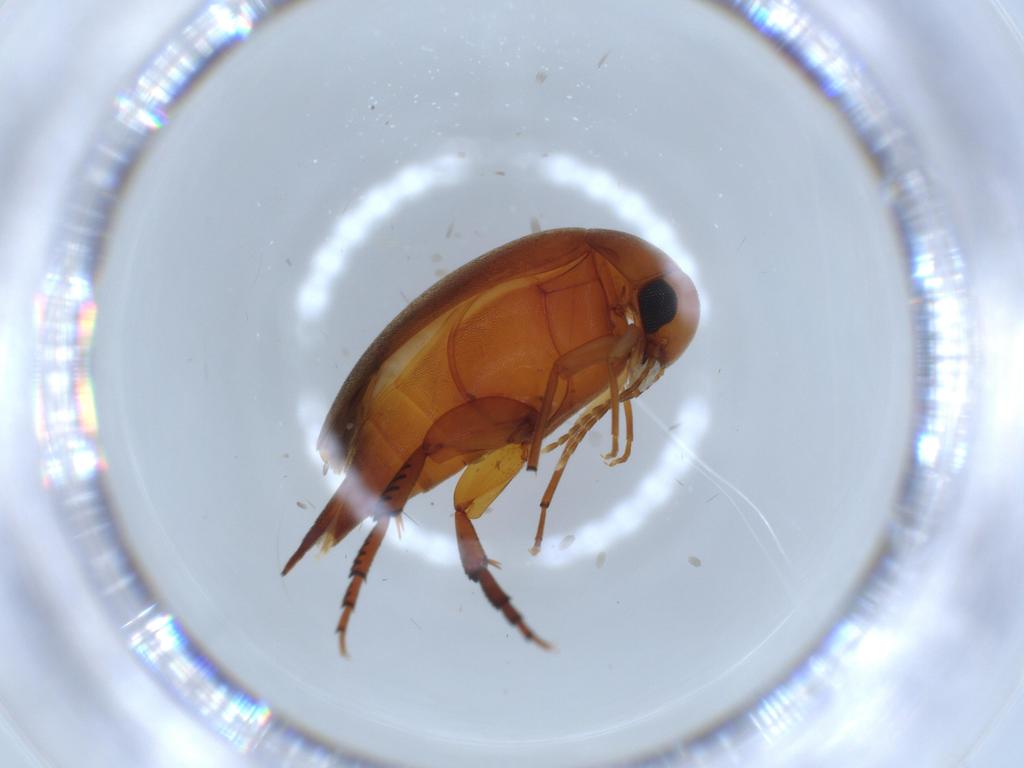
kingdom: Animalia
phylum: Arthropoda
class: Insecta
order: Coleoptera
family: Mordellidae
